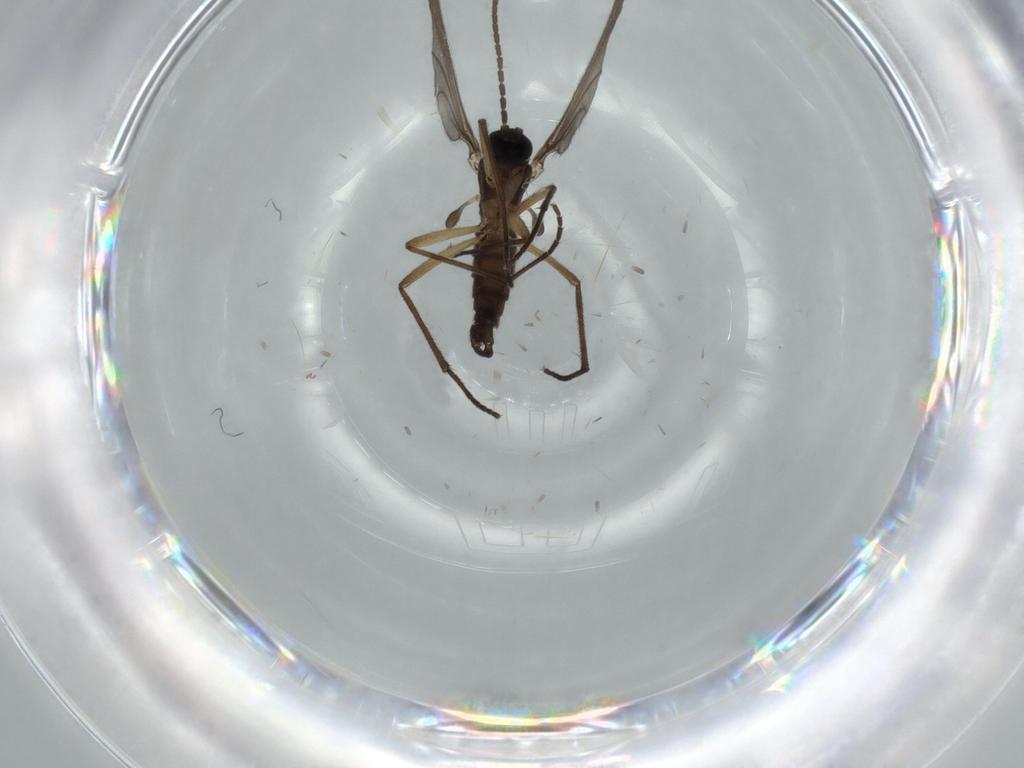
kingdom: Animalia
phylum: Arthropoda
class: Insecta
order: Diptera
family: Sciaridae
